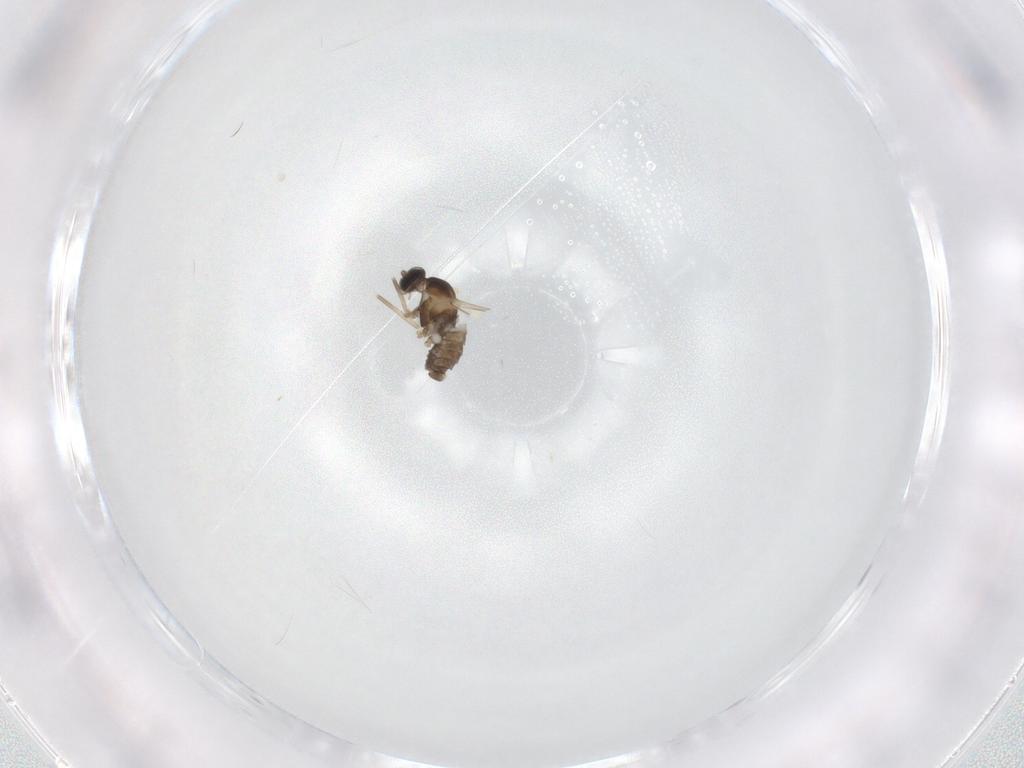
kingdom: Animalia
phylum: Arthropoda
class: Insecta
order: Diptera
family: Cecidomyiidae
